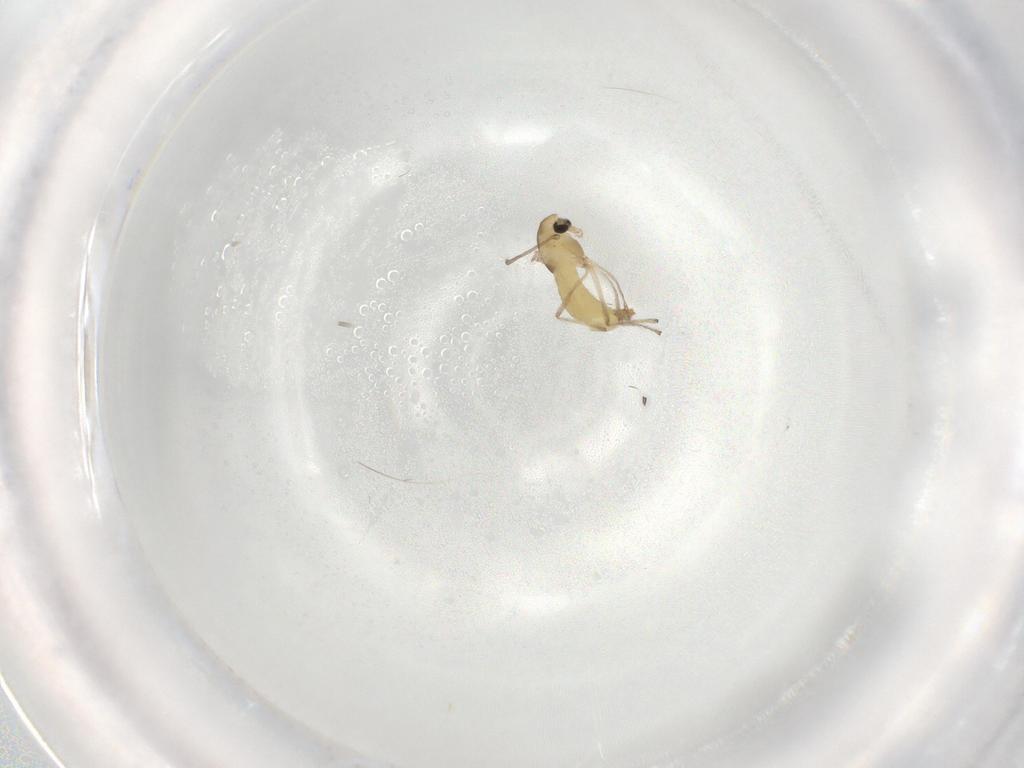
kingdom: Animalia
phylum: Arthropoda
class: Insecta
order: Diptera
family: Chironomidae
